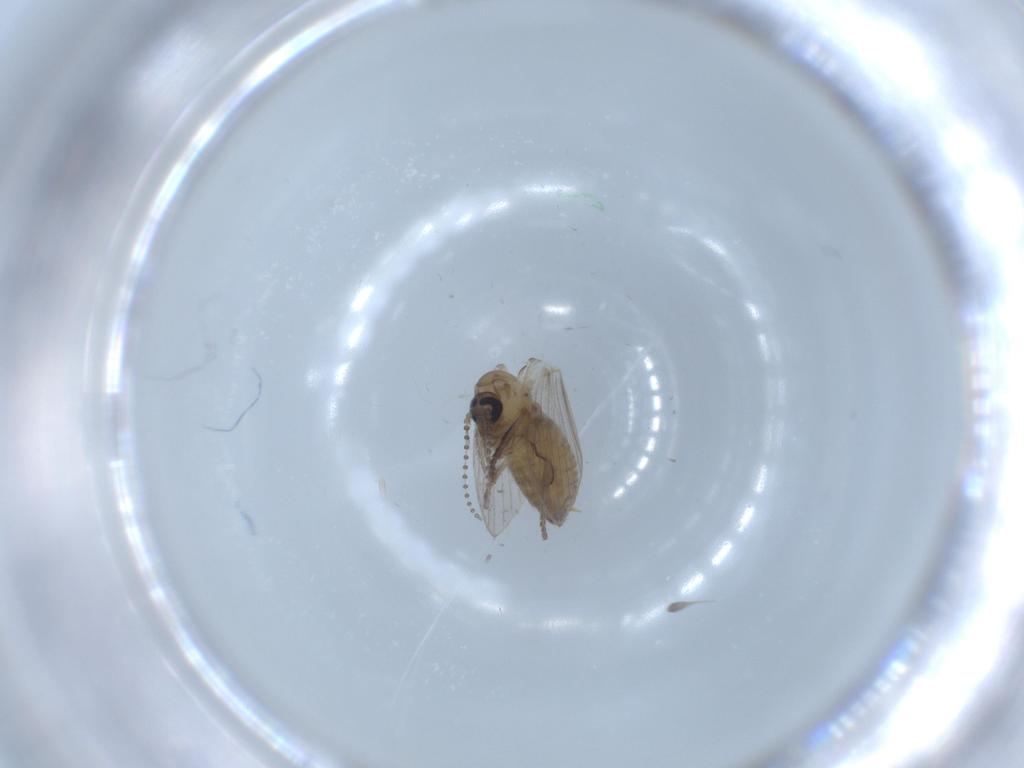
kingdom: Animalia
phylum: Arthropoda
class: Insecta
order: Diptera
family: Psychodidae
